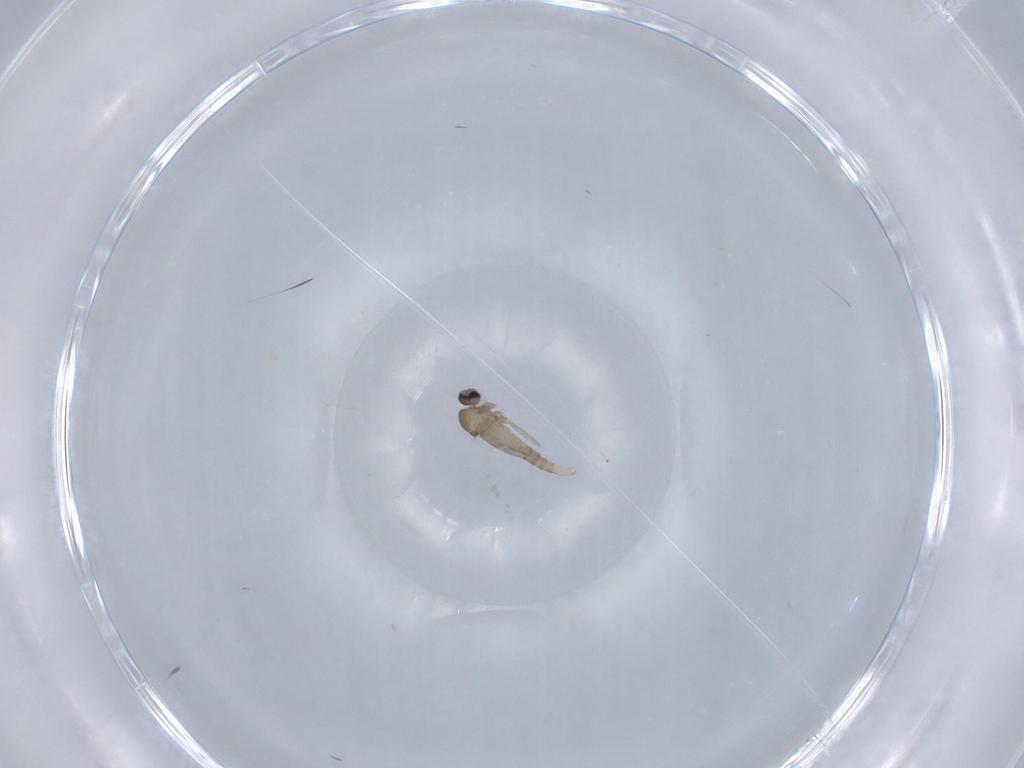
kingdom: Animalia
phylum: Arthropoda
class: Insecta
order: Diptera
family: Cecidomyiidae
